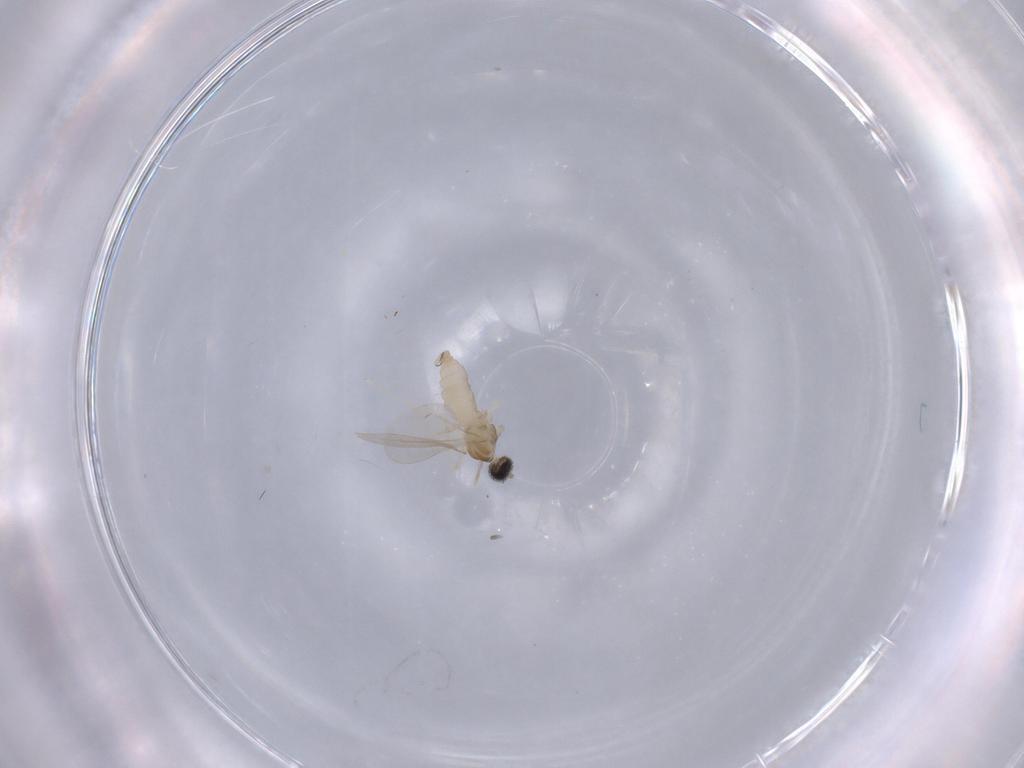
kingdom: Animalia
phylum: Arthropoda
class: Insecta
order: Diptera
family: Cecidomyiidae
